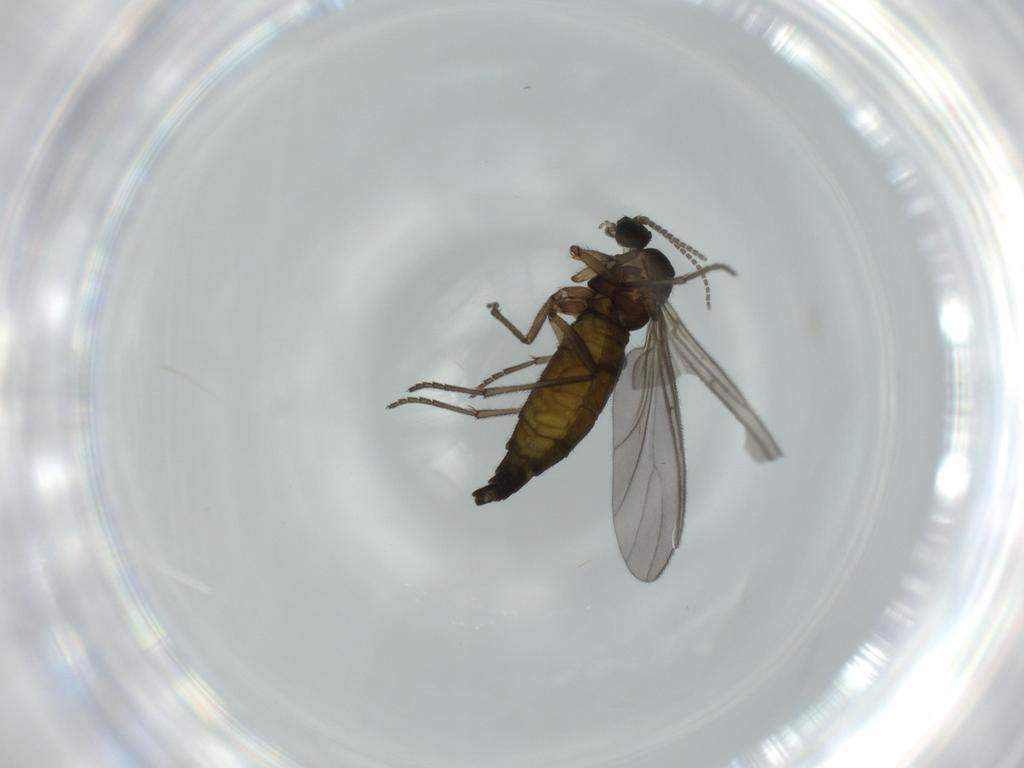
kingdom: Animalia
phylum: Arthropoda
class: Insecta
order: Diptera
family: Sciaridae
